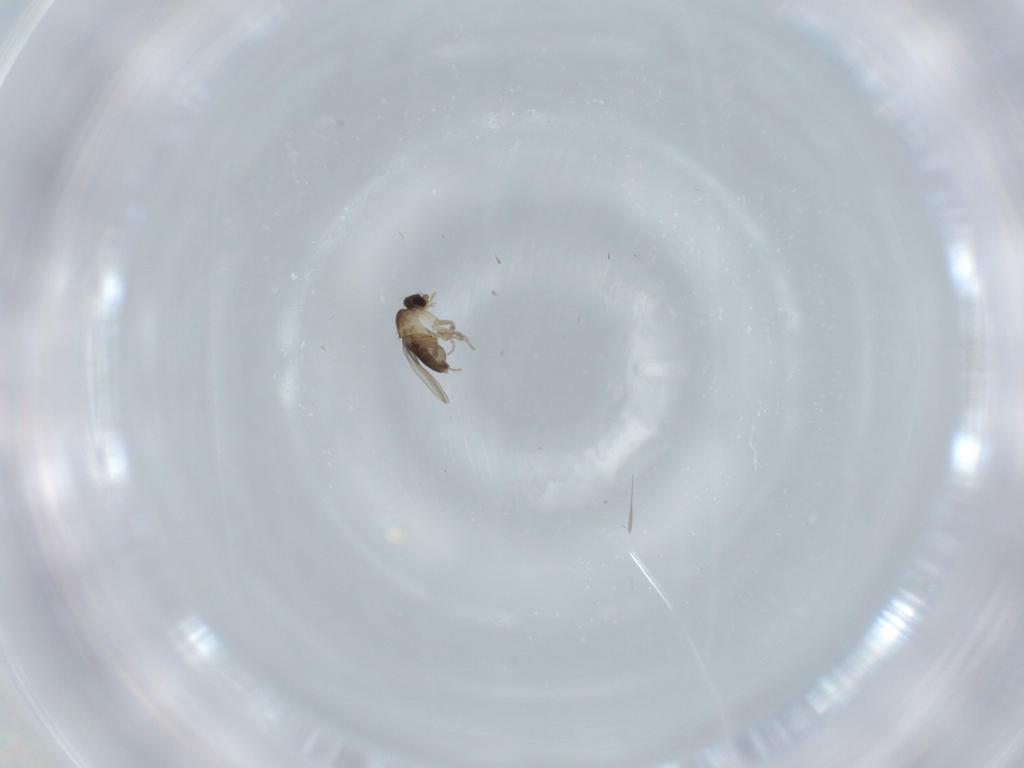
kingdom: Animalia
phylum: Arthropoda
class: Insecta
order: Diptera
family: Phoridae
